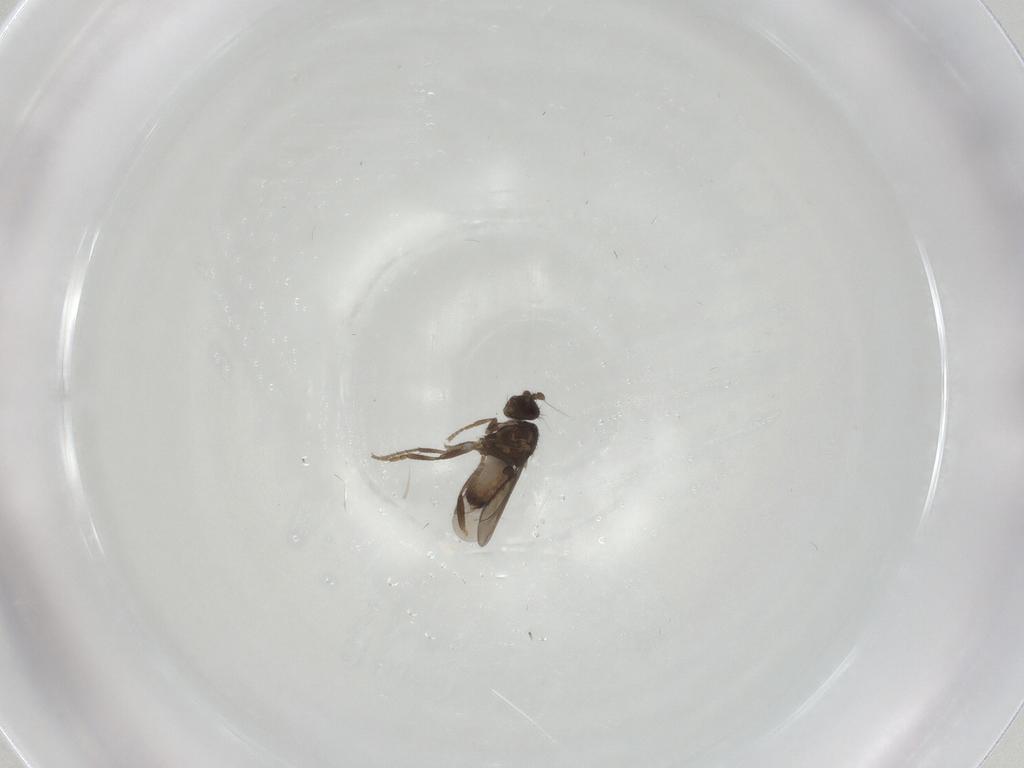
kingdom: Animalia
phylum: Arthropoda
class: Insecta
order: Diptera
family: Sphaeroceridae
